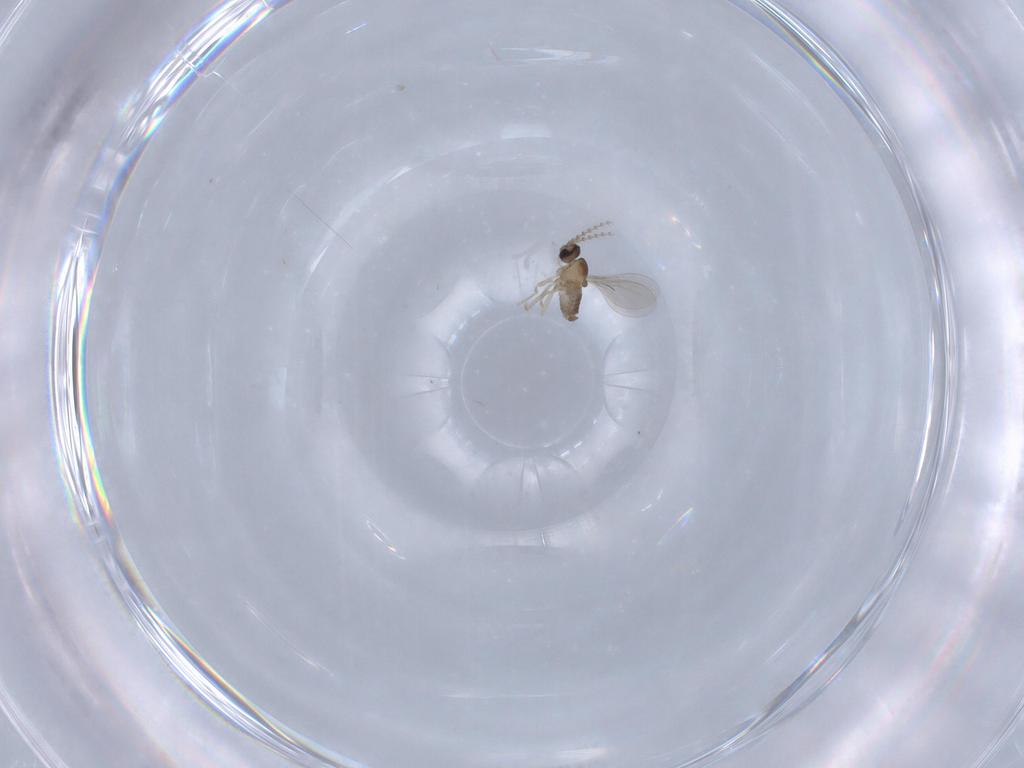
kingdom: Animalia
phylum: Arthropoda
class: Insecta
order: Diptera
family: Cecidomyiidae
